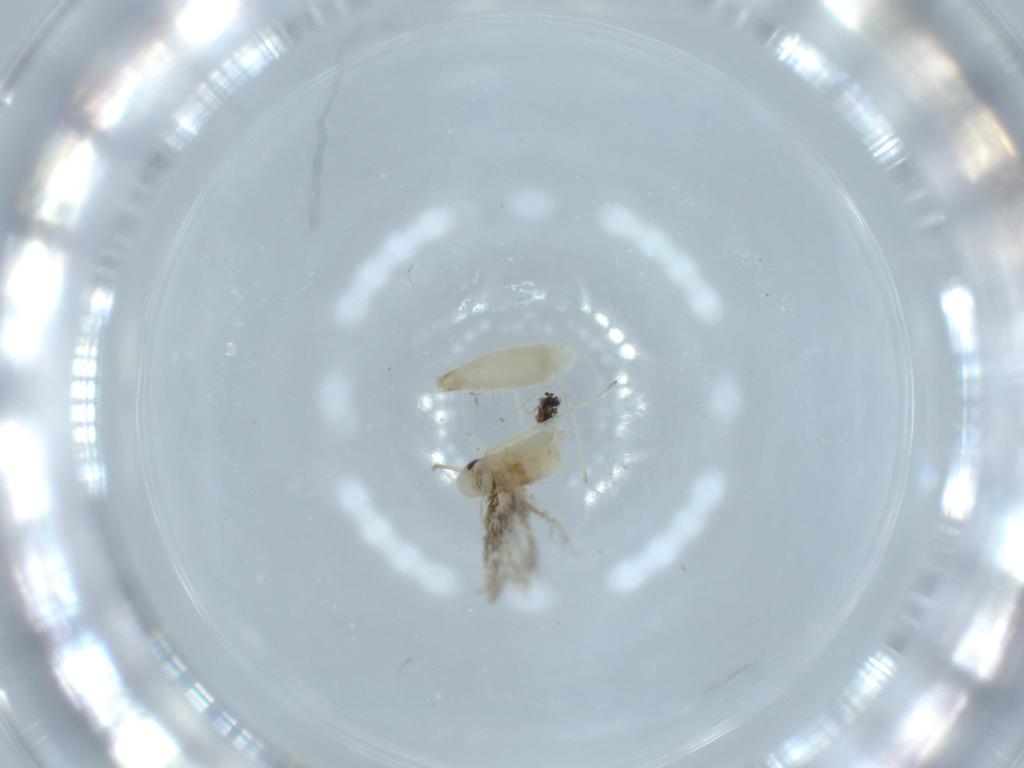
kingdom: Animalia
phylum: Arthropoda
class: Insecta
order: Lepidoptera
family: Gracillariidae
